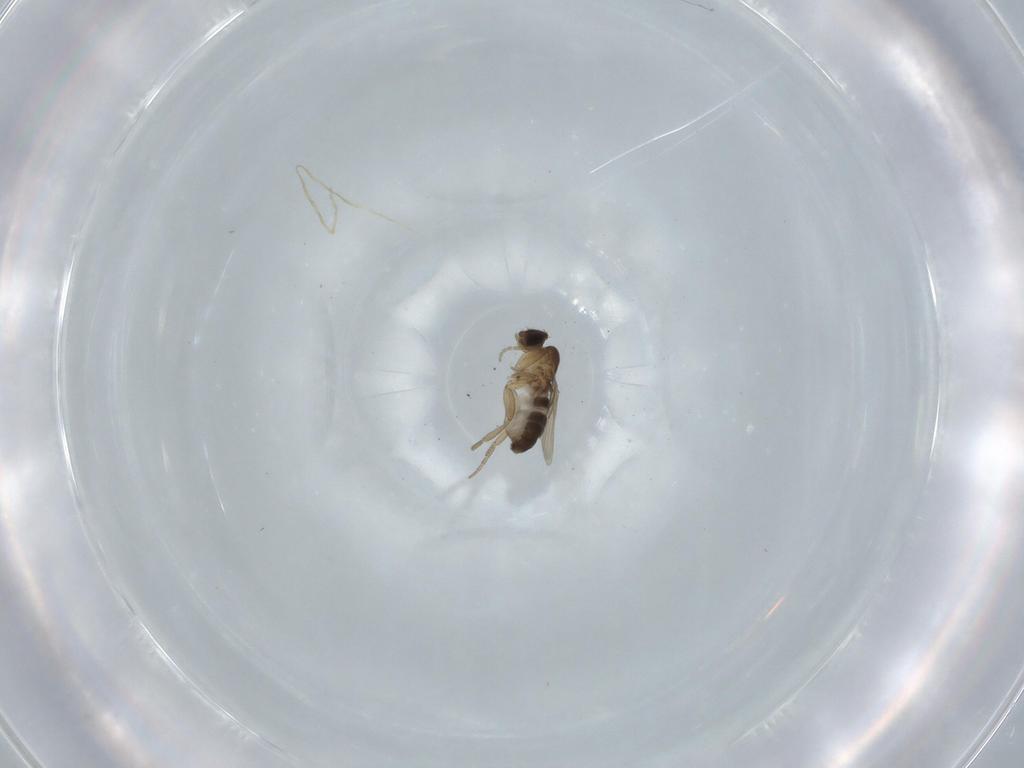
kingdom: Animalia
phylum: Arthropoda
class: Insecta
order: Diptera
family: Phoridae
